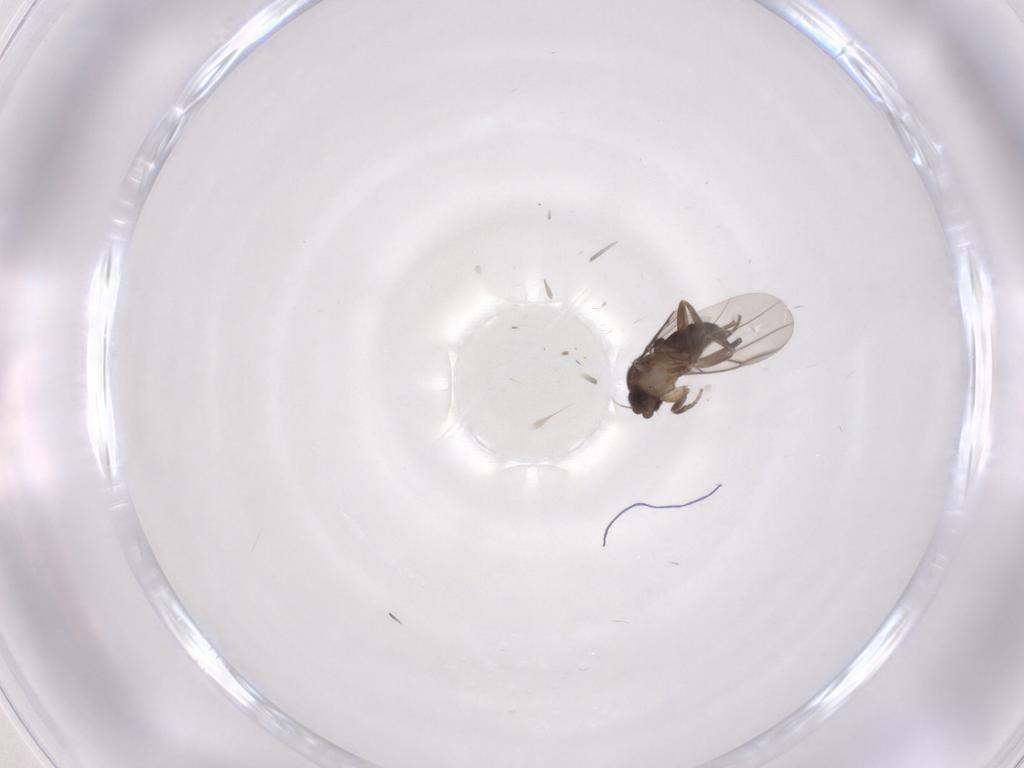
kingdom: Animalia
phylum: Arthropoda
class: Insecta
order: Diptera
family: Phoridae
